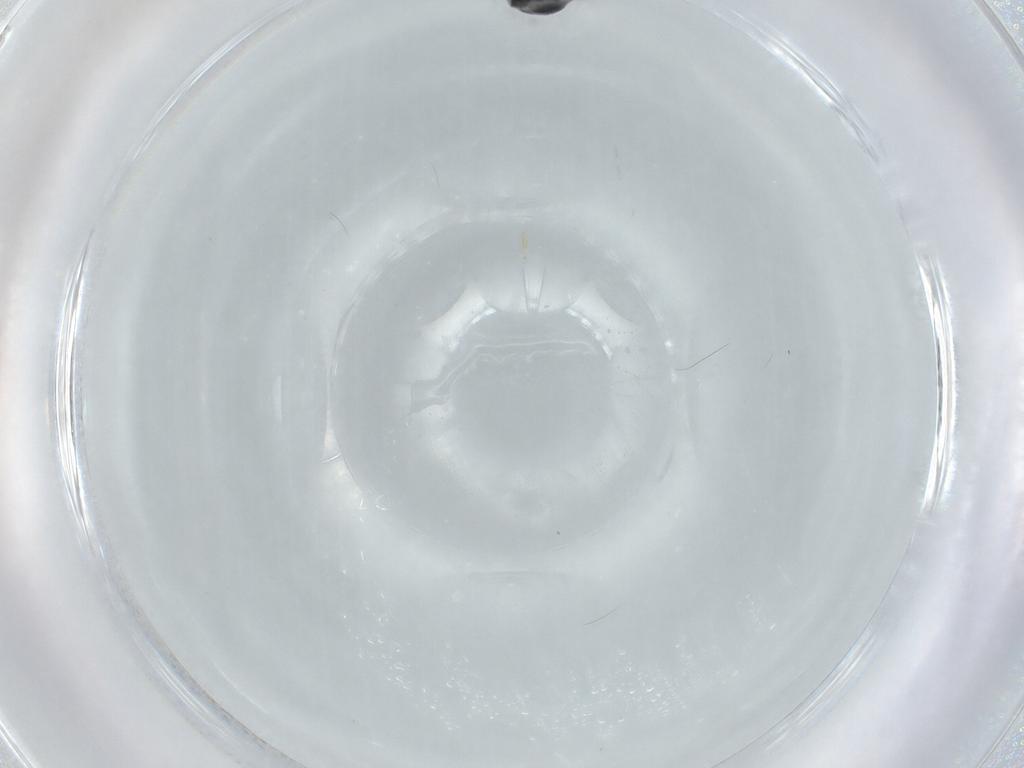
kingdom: Animalia
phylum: Arthropoda
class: Insecta
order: Hymenoptera
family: Scelionidae
